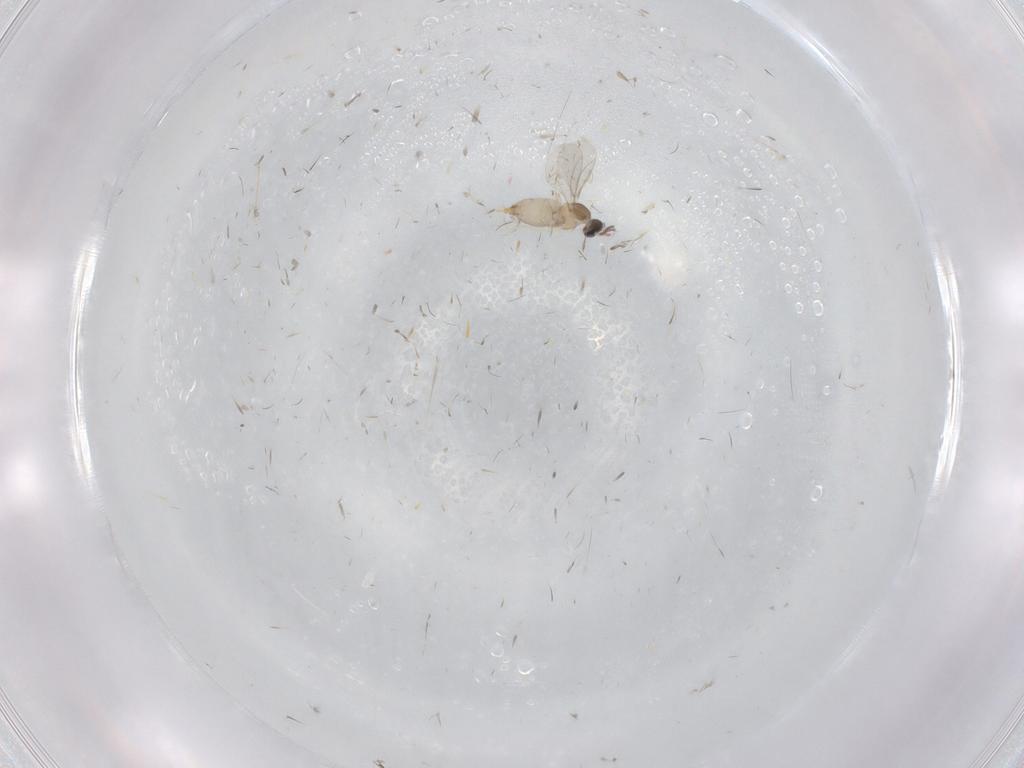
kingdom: Animalia
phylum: Arthropoda
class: Insecta
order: Diptera
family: Cecidomyiidae
